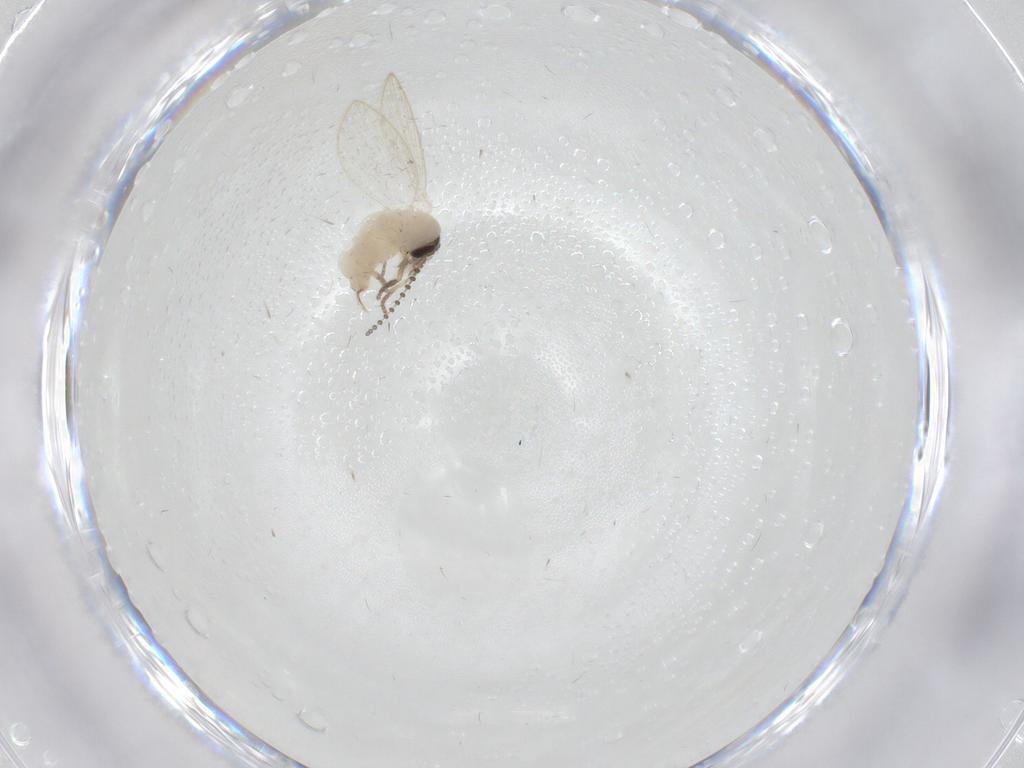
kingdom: Animalia
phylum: Arthropoda
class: Insecta
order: Diptera
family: Psychodidae
